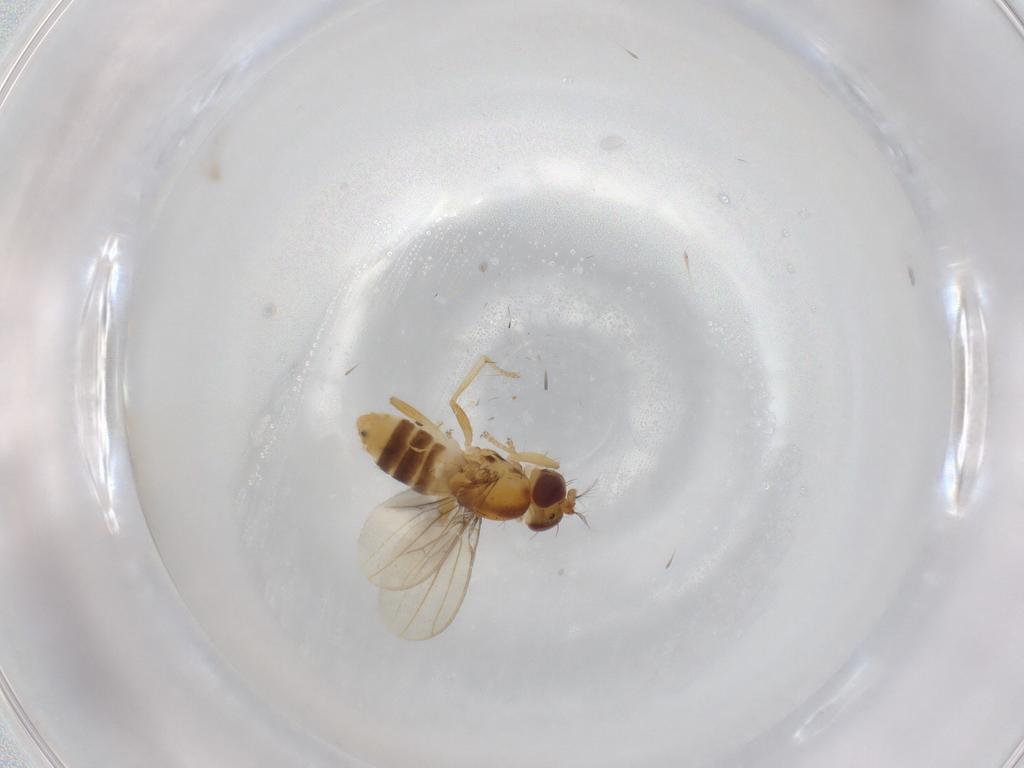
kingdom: Animalia
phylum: Arthropoda
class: Insecta
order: Diptera
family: Periscelididae
